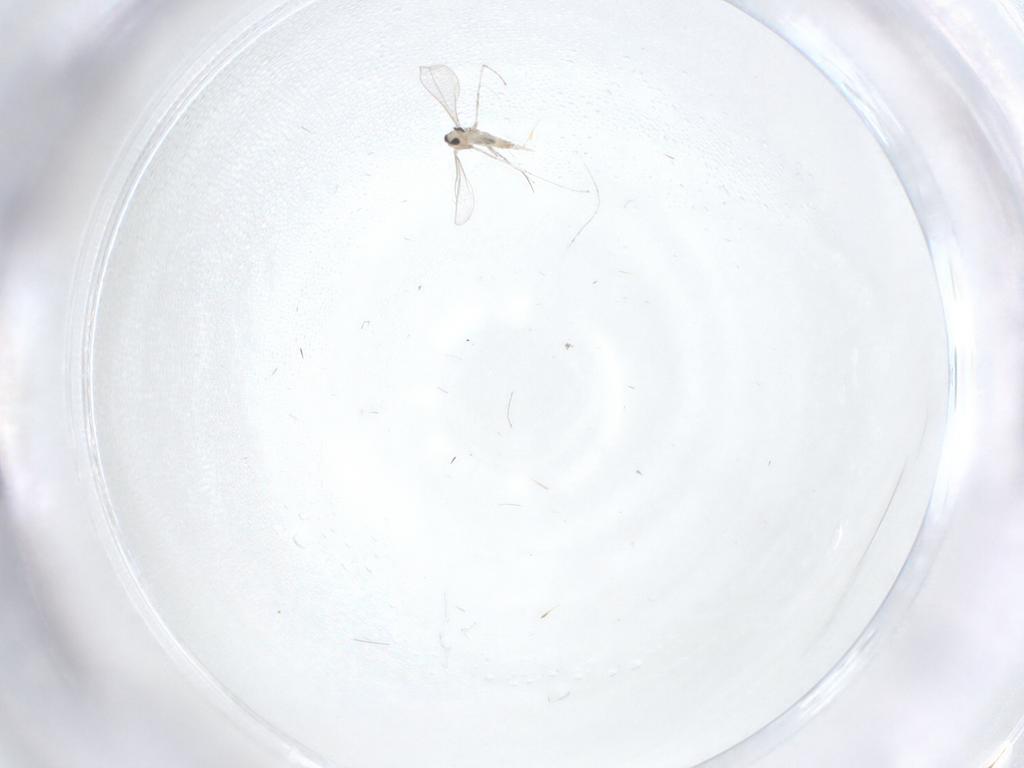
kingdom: Animalia
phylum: Arthropoda
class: Insecta
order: Diptera
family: Cecidomyiidae
